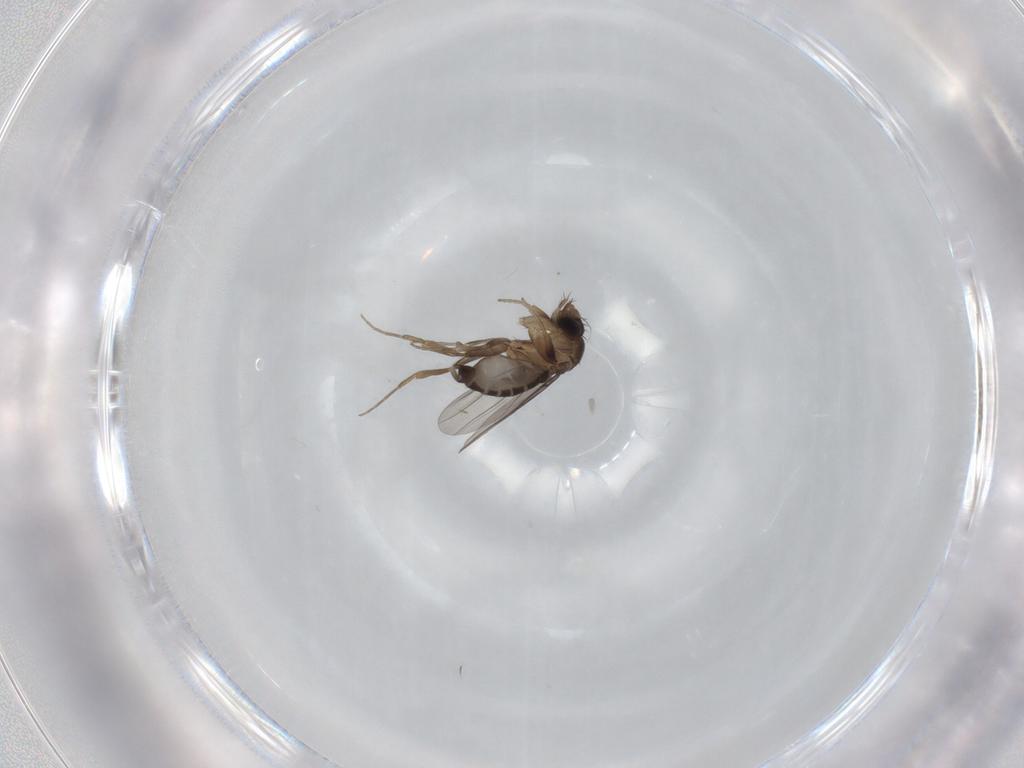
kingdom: Animalia
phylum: Arthropoda
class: Insecta
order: Diptera
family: Phoridae
